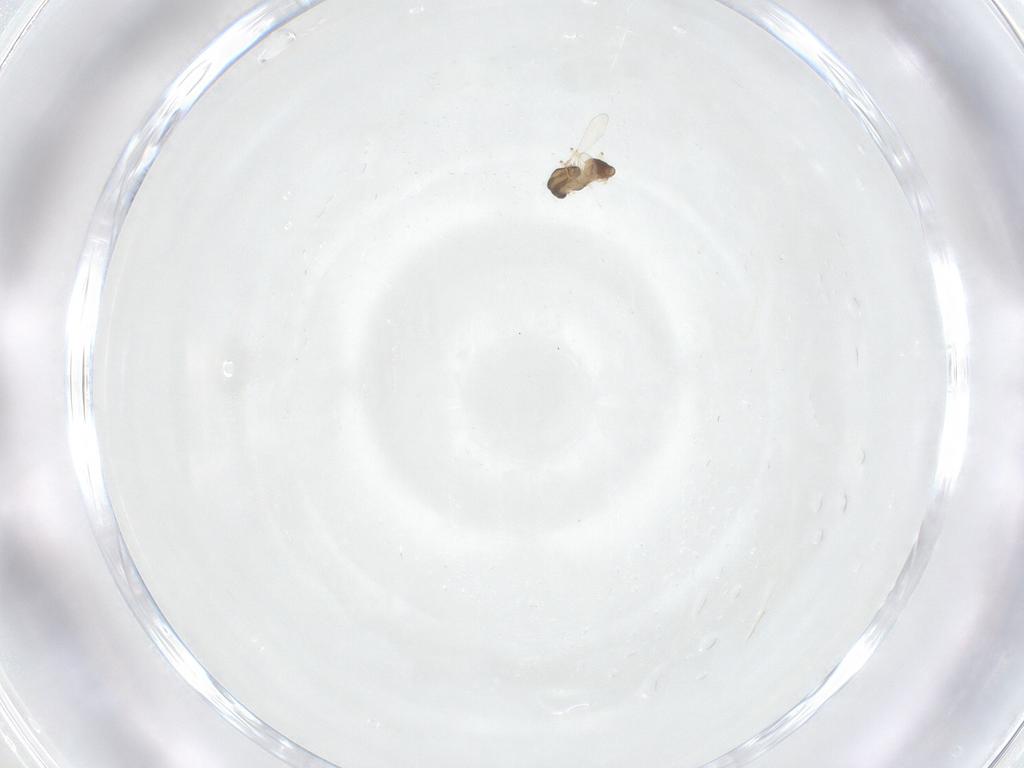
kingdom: Animalia
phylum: Arthropoda
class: Insecta
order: Diptera
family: Chironomidae
